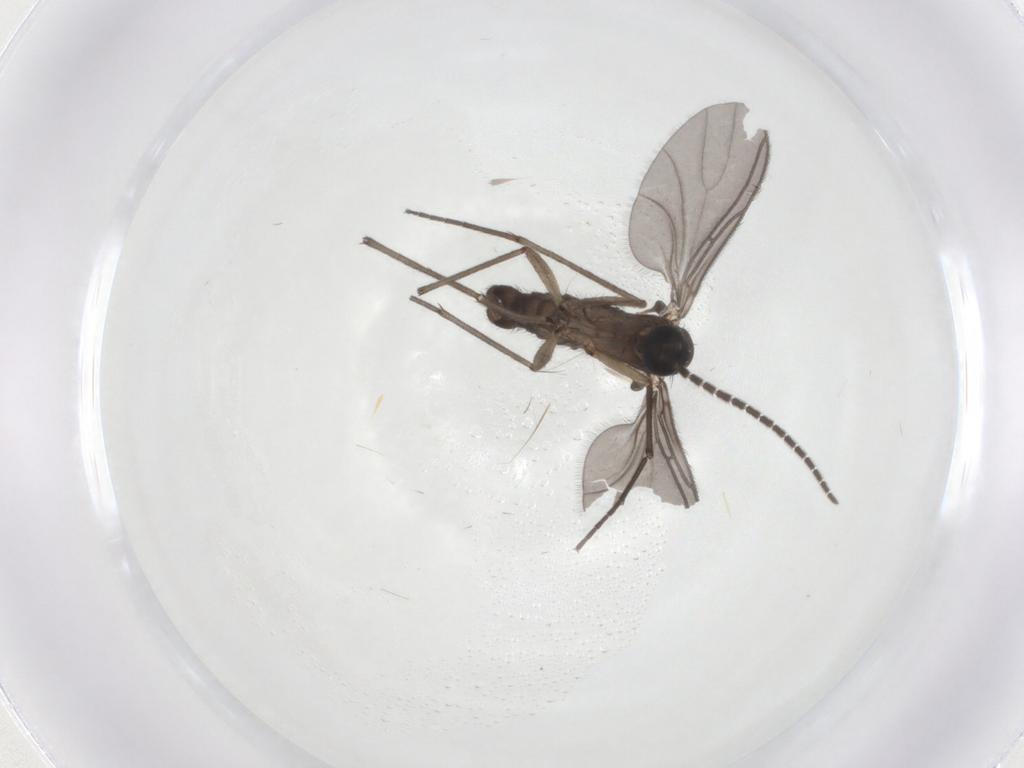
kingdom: Animalia
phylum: Arthropoda
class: Insecta
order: Diptera
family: Sciaridae
